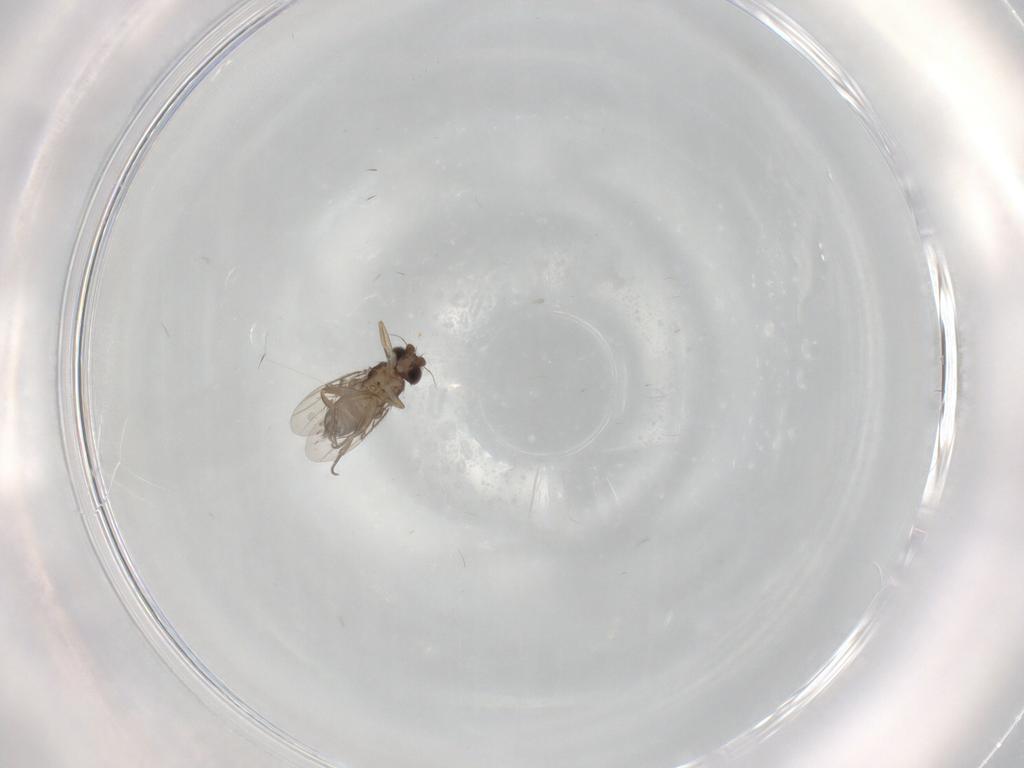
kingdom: Animalia
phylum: Arthropoda
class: Insecta
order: Diptera
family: Phoridae
